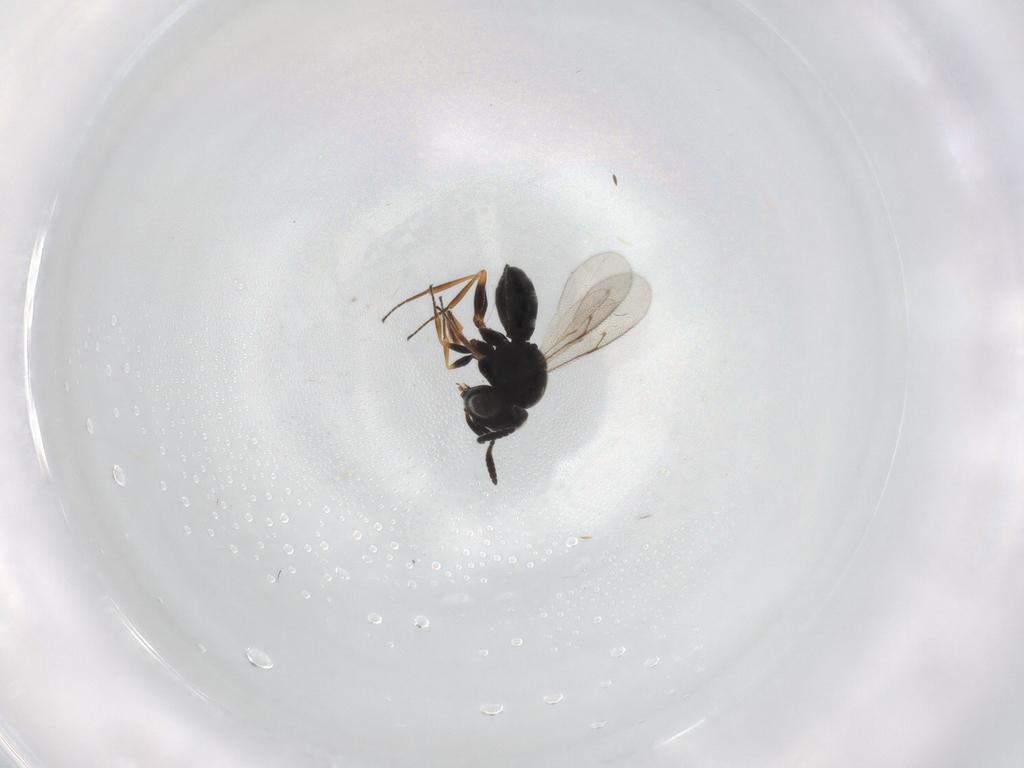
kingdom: Animalia
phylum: Arthropoda
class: Insecta
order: Hymenoptera
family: Scelionidae
